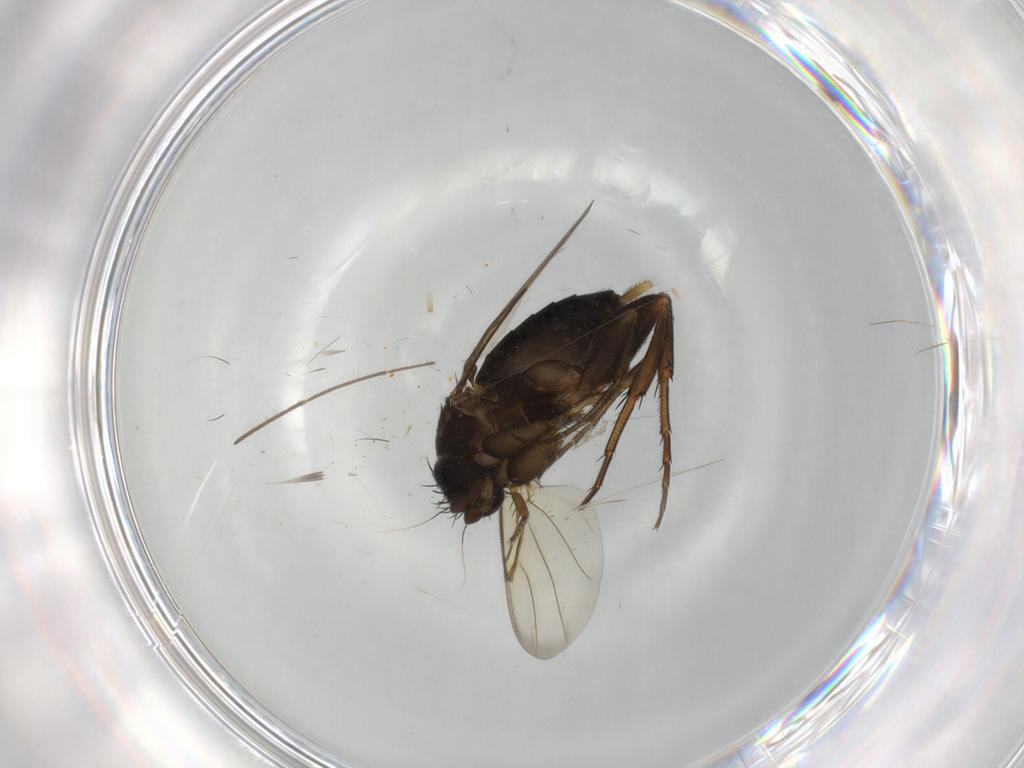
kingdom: Animalia
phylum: Arthropoda
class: Insecta
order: Diptera
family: Phoridae
